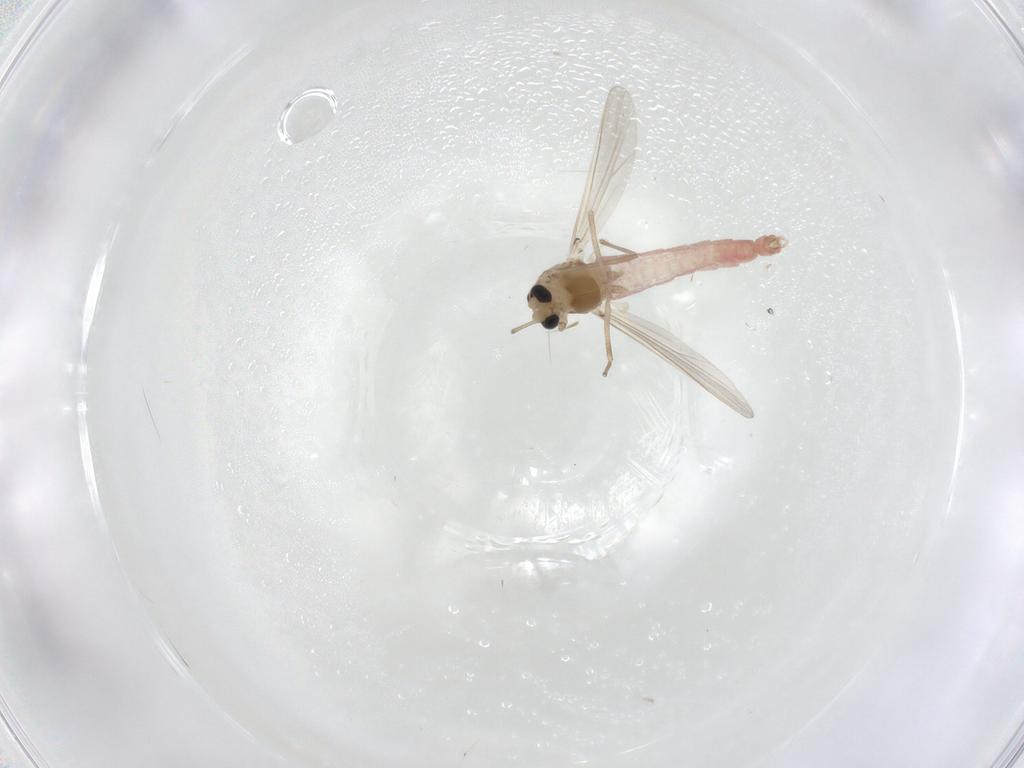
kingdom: Animalia
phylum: Arthropoda
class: Insecta
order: Diptera
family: Chironomidae
